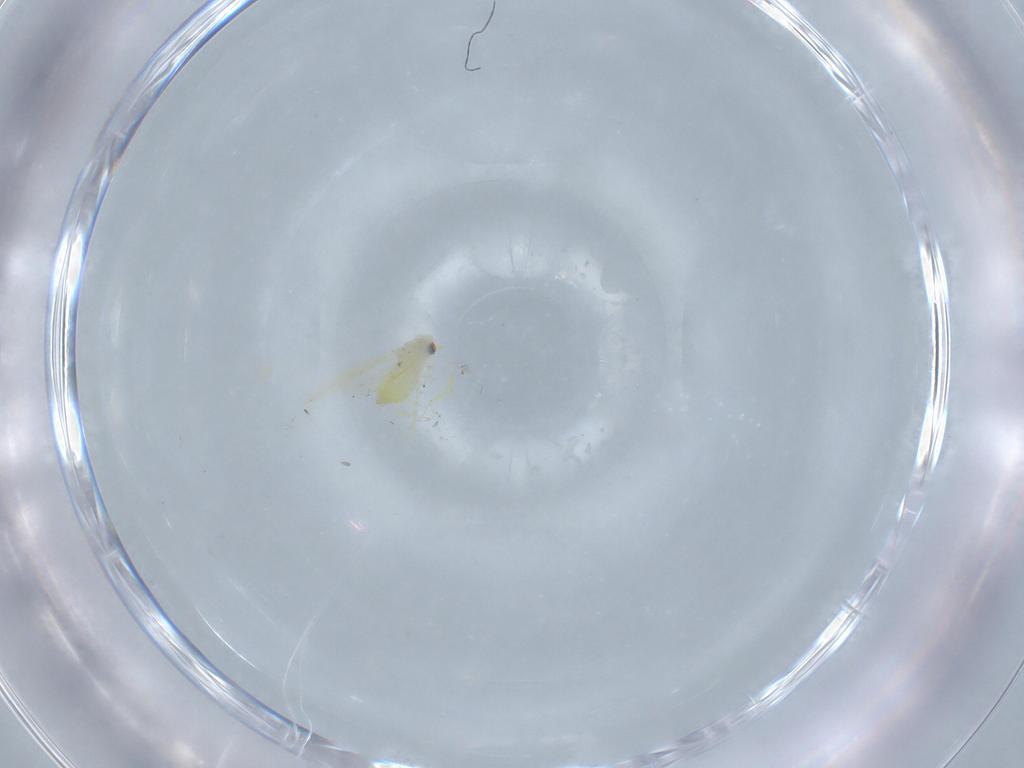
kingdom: Animalia
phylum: Arthropoda
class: Insecta
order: Hemiptera
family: Aleyrodidae
